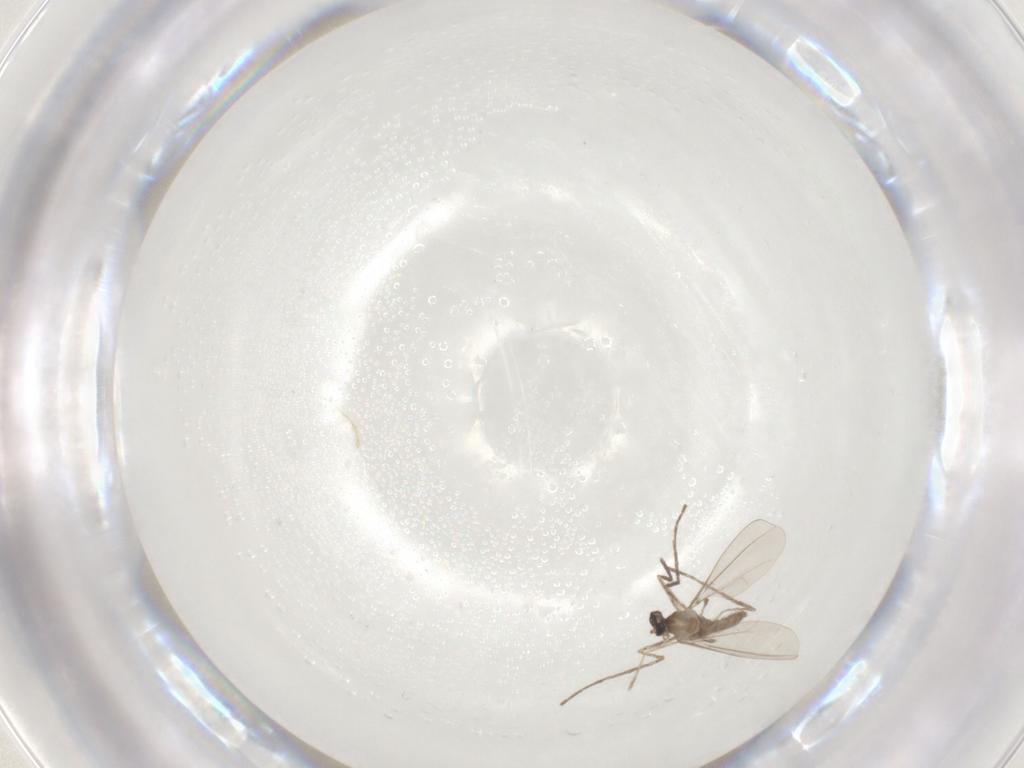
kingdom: Animalia
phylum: Arthropoda
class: Insecta
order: Diptera
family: Cecidomyiidae
